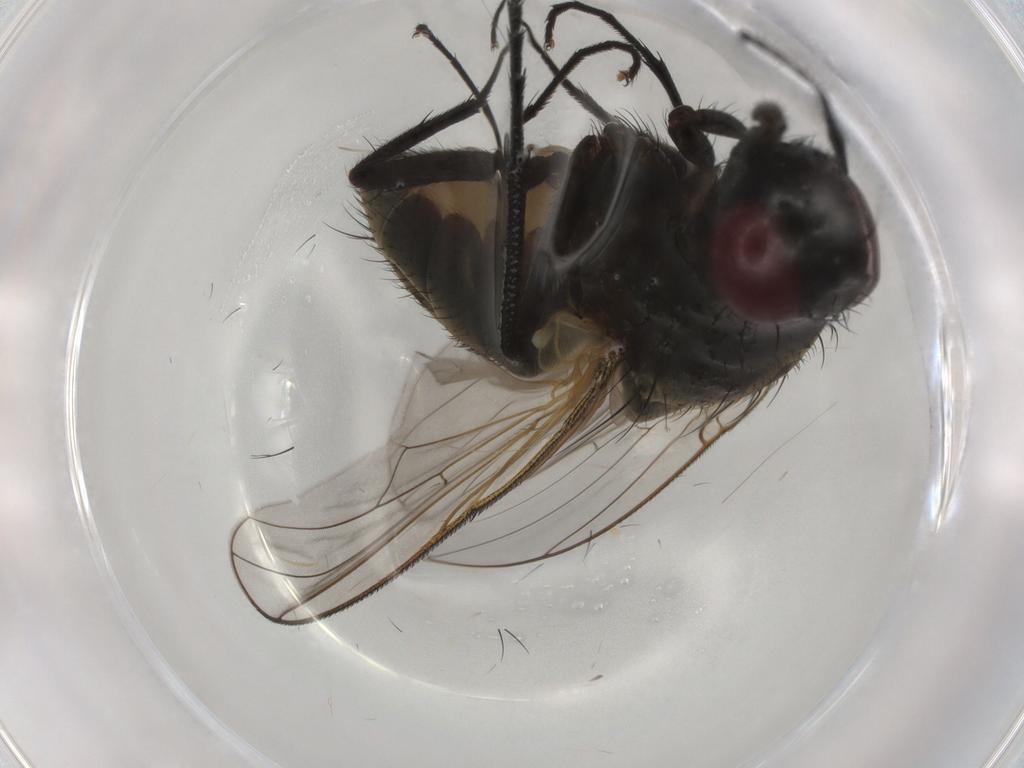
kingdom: Animalia
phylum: Arthropoda
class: Insecta
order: Diptera
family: Muscidae
